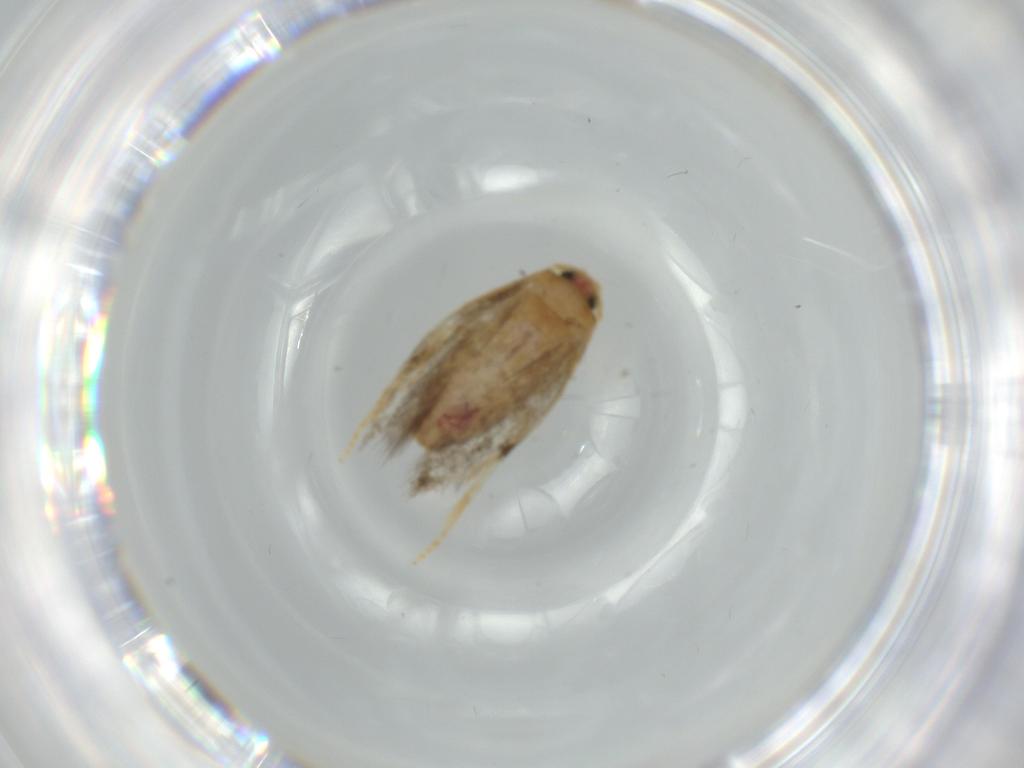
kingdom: Animalia
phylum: Arthropoda
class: Insecta
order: Lepidoptera
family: Nepticulidae
